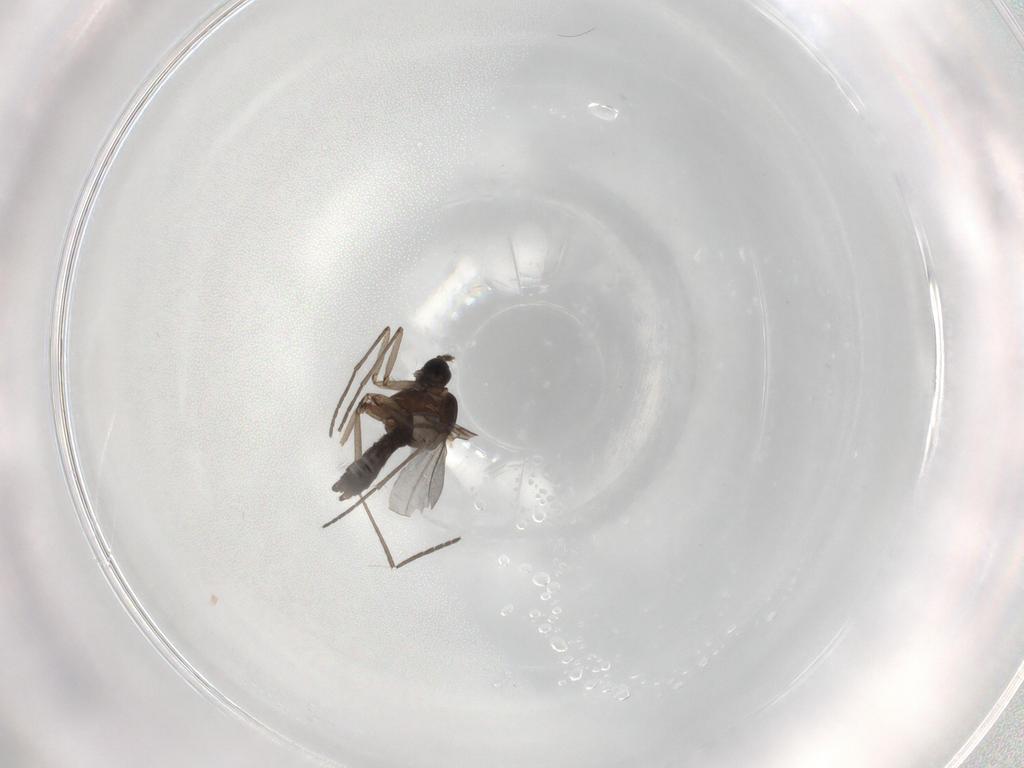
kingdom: Animalia
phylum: Arthropoda
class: Insecta
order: Diptera
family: Sciaridae
